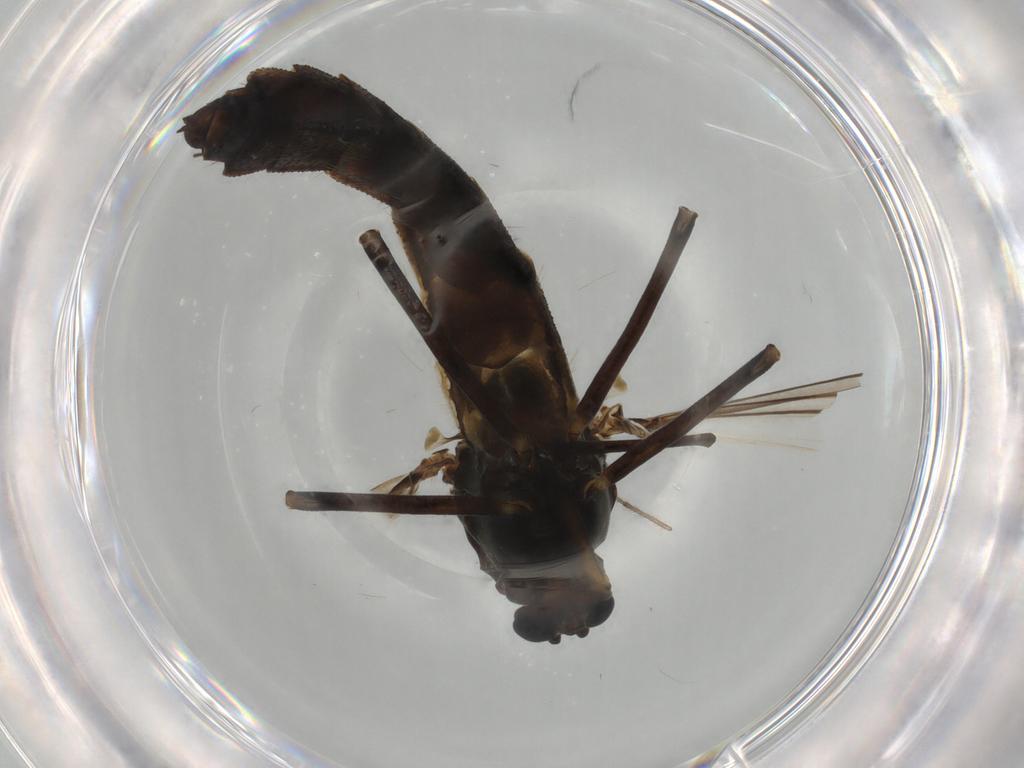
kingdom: Animalia
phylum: Arthropoda
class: Insecta
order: Diptera
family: Chironomidae
